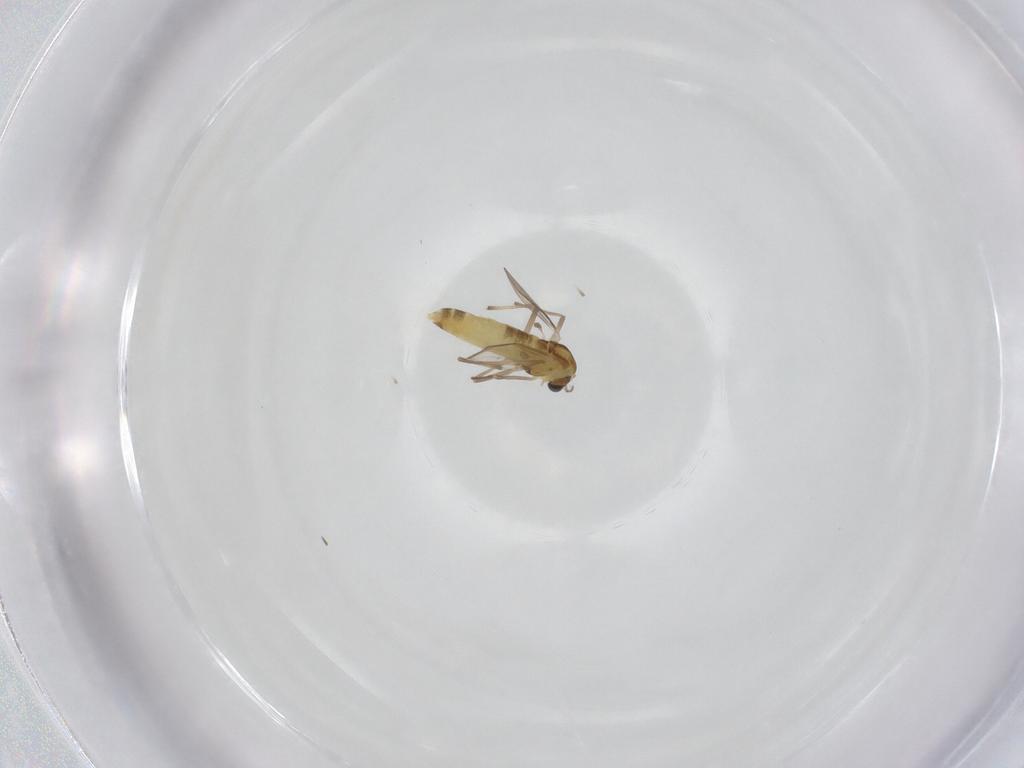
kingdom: Animalia
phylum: Arthropoda
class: Insecta
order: Diptera
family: Chironomidae
